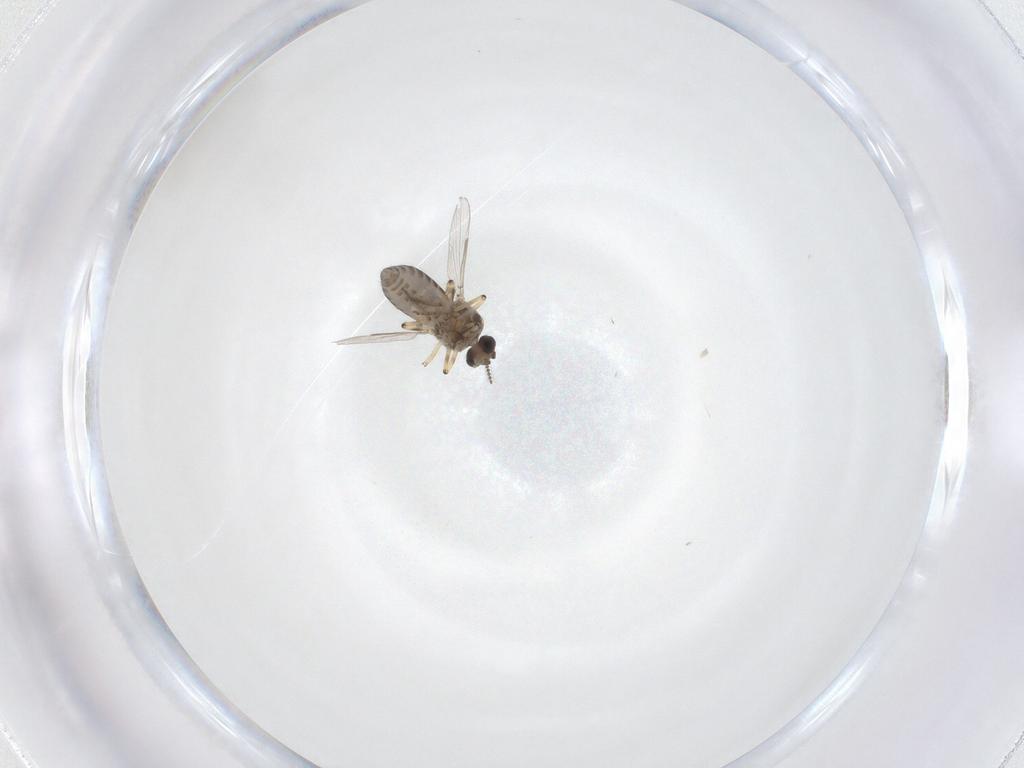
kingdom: Animalia
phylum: Arthropoda
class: Insecta
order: Diptera
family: Ceratopogonidae
